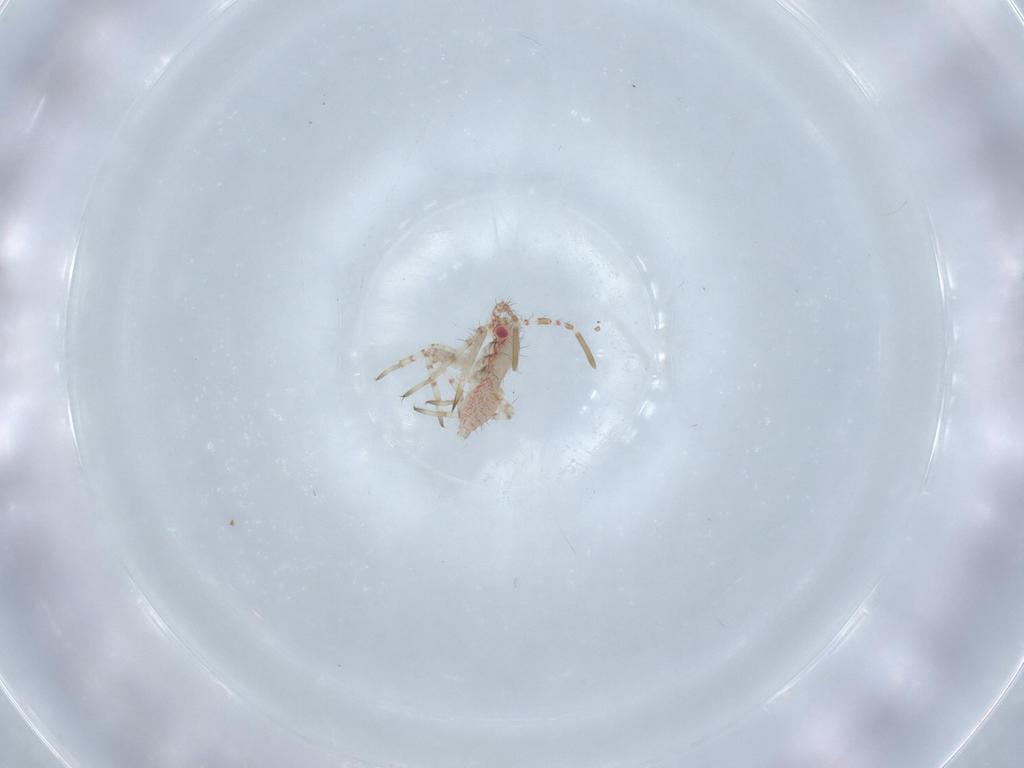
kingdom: Animalia
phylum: Arthropoda
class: Insecta
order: Hemiptera
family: Miridae
